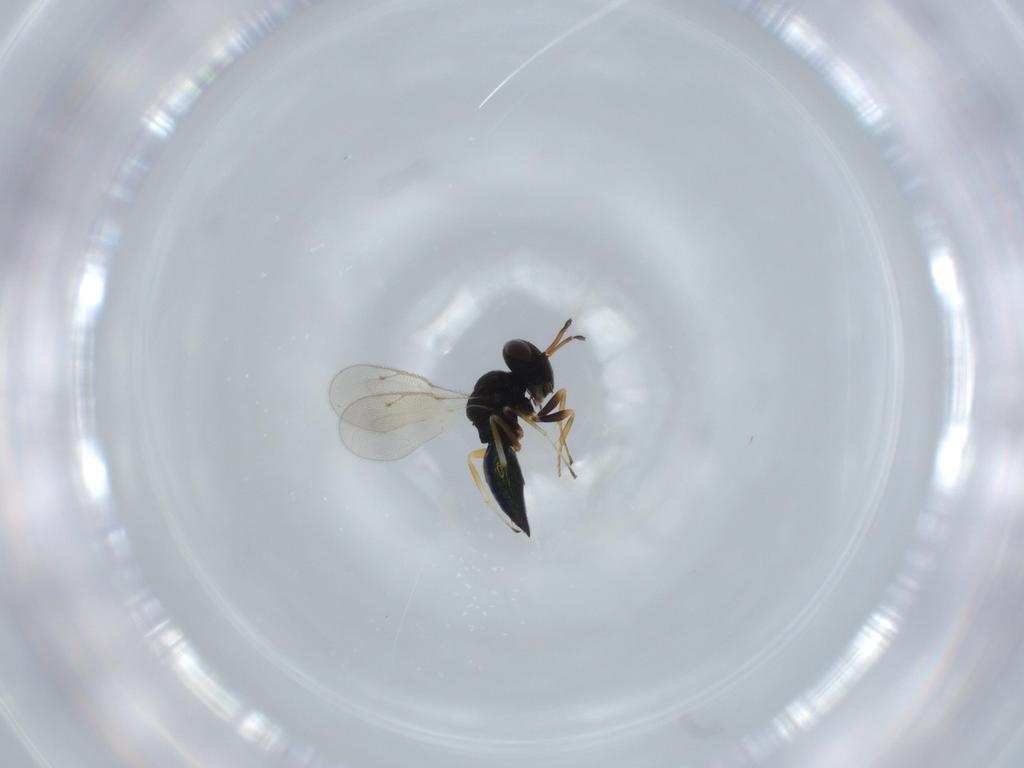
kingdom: Animalia
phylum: Arthropoda
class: Insecta
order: Hymenoptera
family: Pteromalidae
